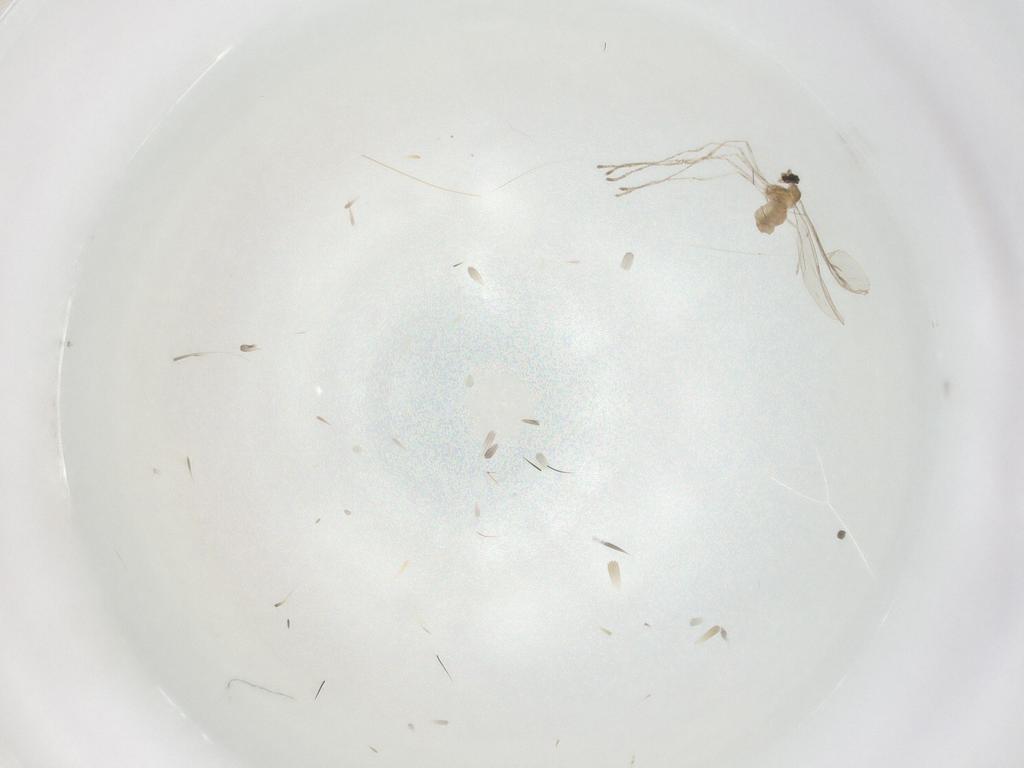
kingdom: Animalia
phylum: Arthropoda
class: Insecta
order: Diptera
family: Cecidomyiidae
